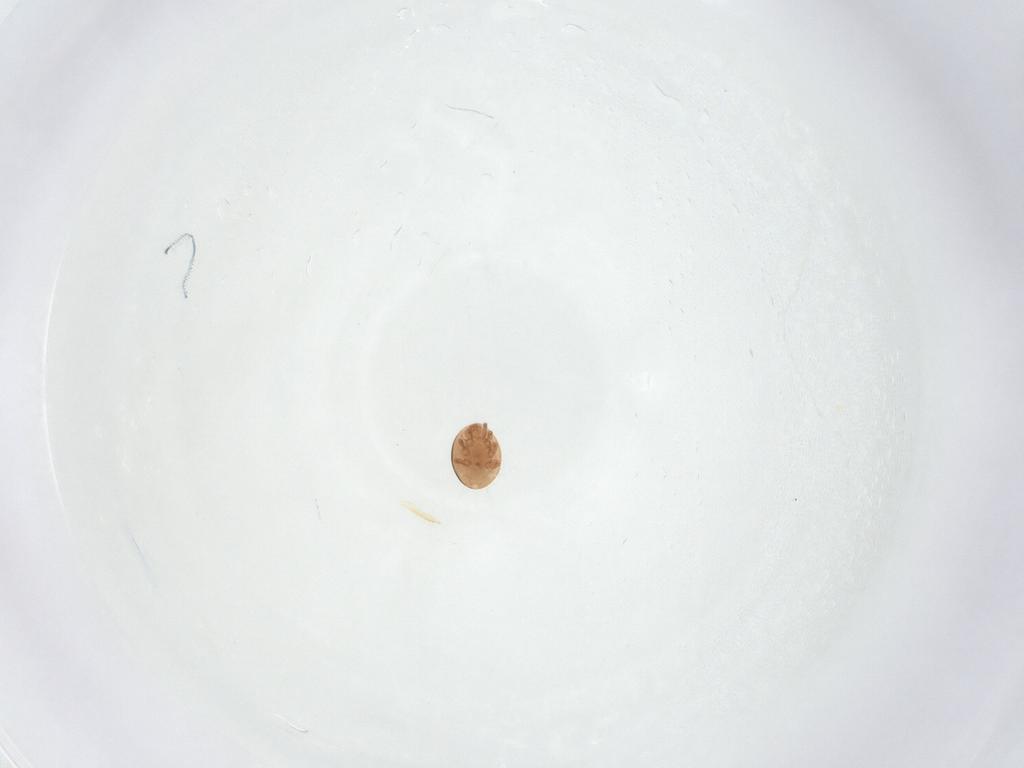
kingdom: Animalia
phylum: Arthropoda
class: Arachnida
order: Mesostigmata
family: Trematuridae
